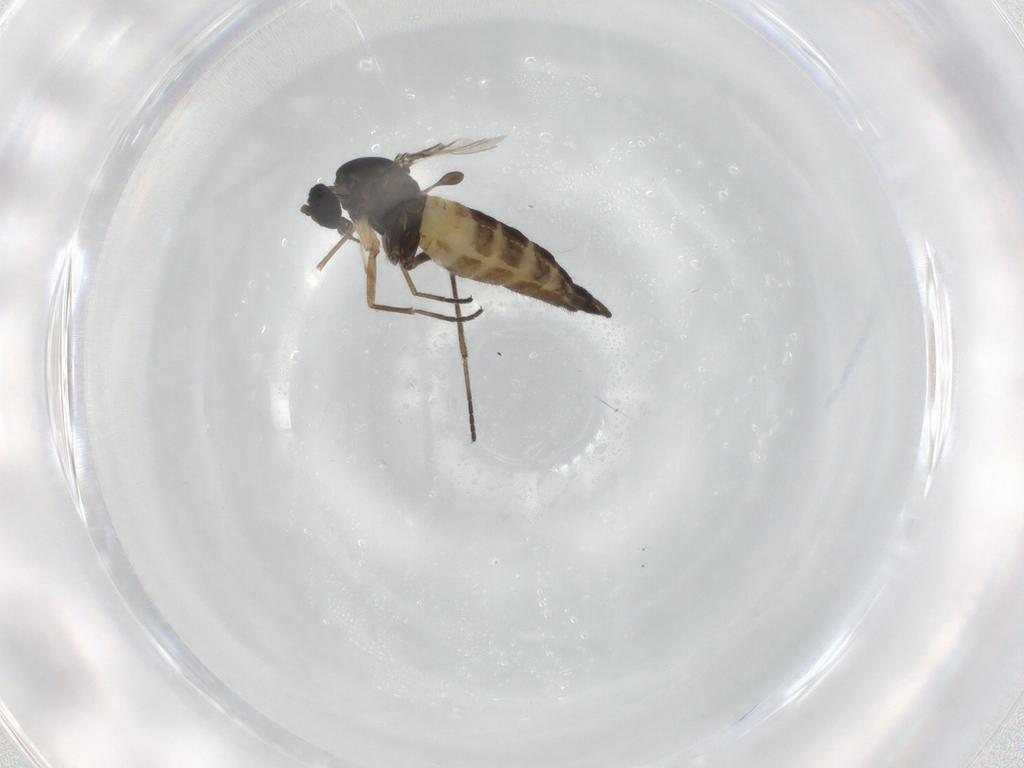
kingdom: Animalia
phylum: Arthropoda
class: Insecta
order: Diptera
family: Sciaridae
